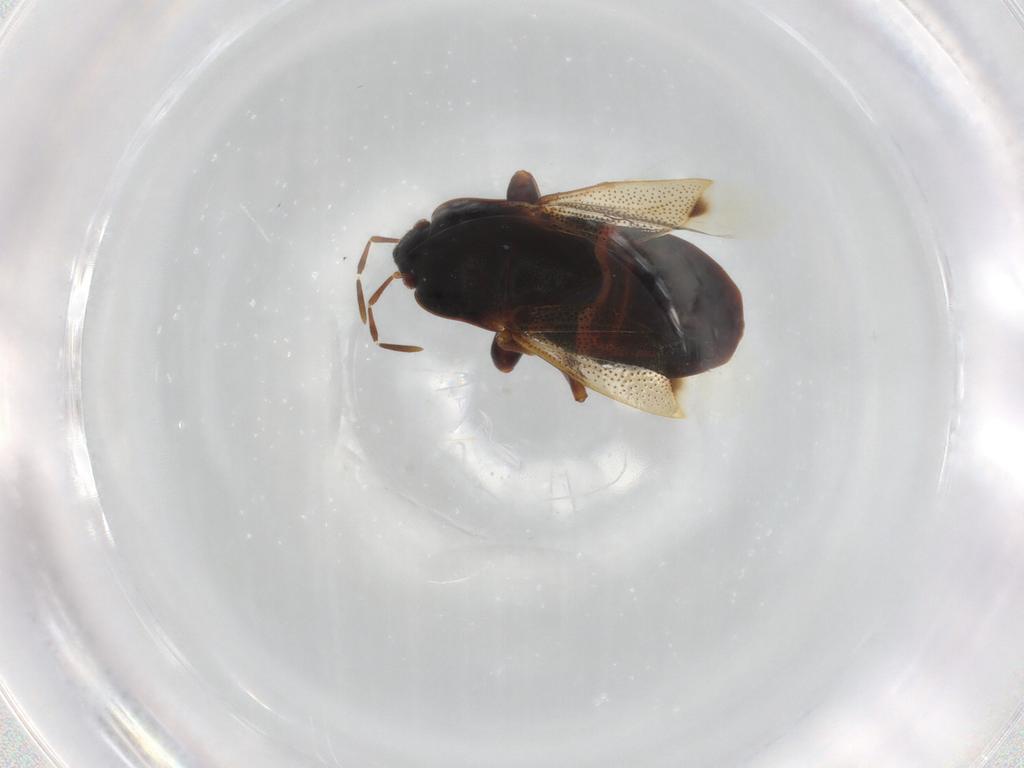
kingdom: Animalia
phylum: Arthropoda
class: Insecta
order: Hemiptera
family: Rhyparochromidae
